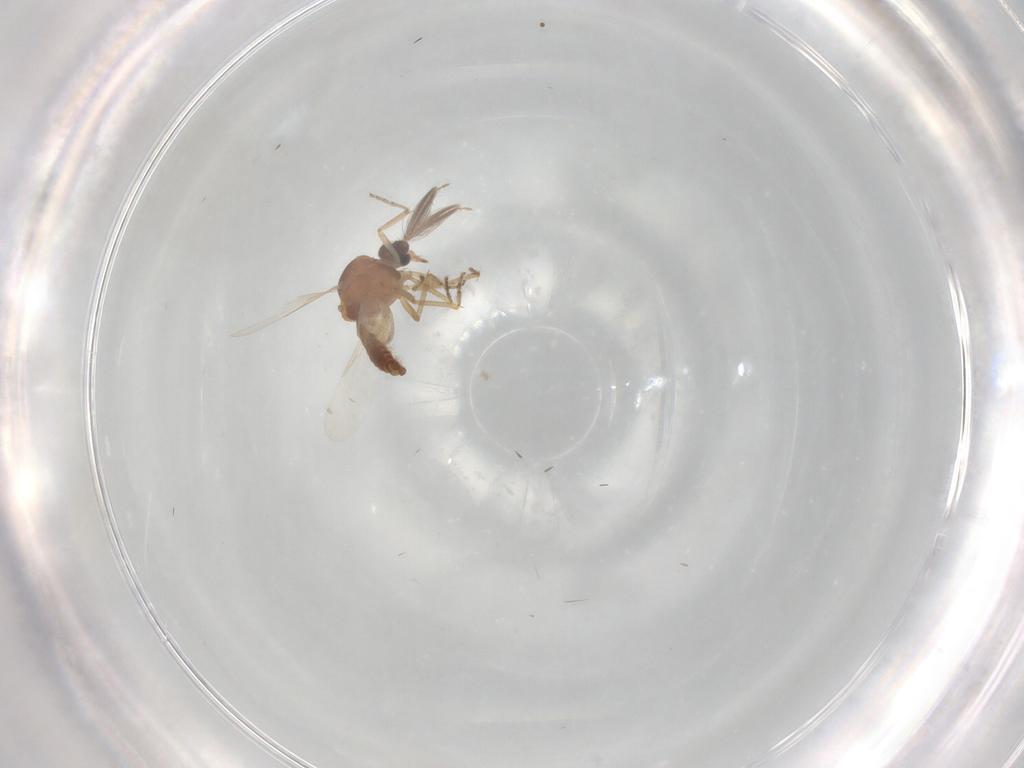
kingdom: Animalia
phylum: Arthropoda
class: Insecta
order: Diptera
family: Ceratopogonidae
